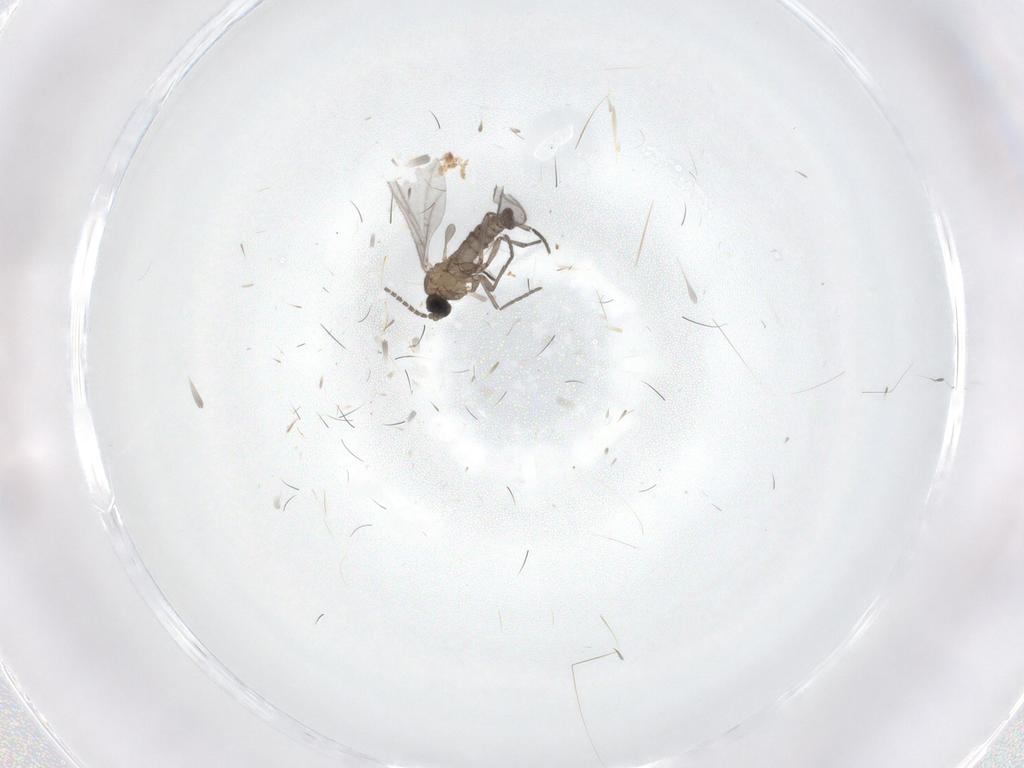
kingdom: Animalia
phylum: Arthropoda
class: Insecta
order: Diptera
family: Sciaridae
